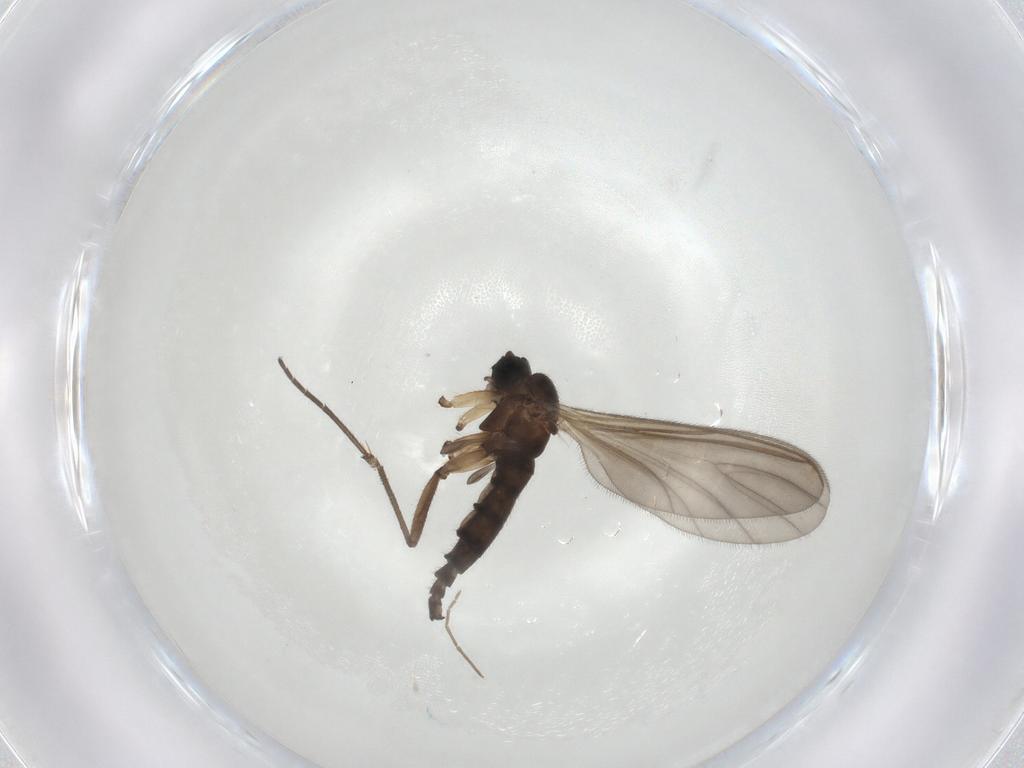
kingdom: Animalia
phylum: Arthropoda
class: Insecta
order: Diptera
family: Sciaridae
